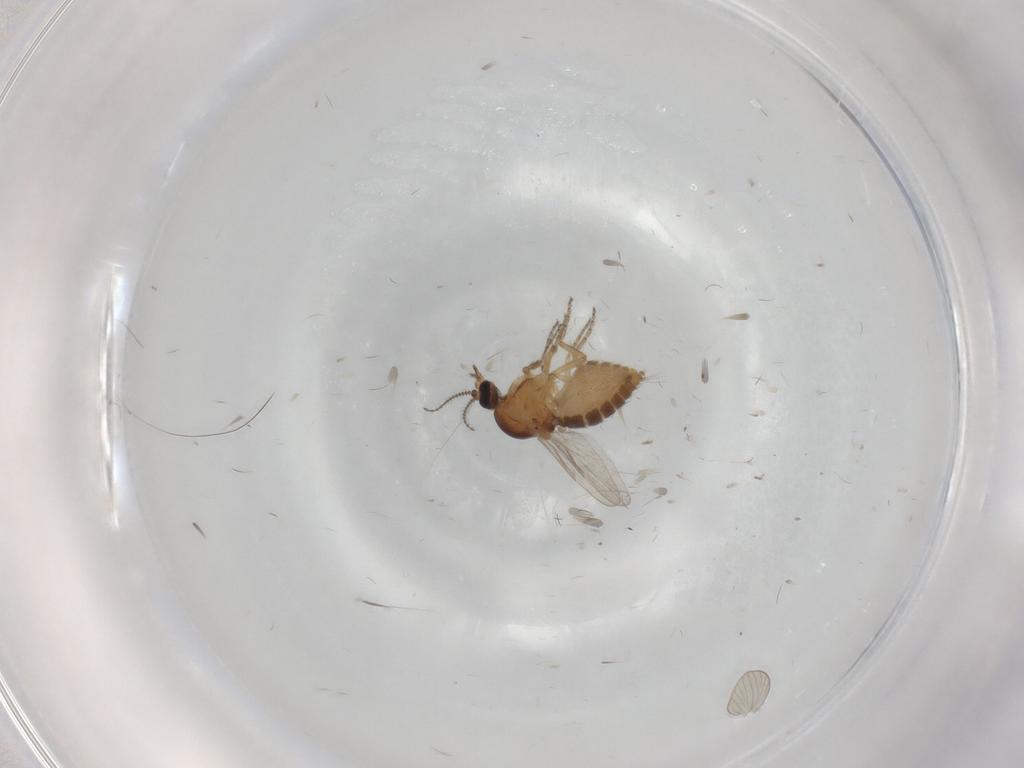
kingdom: Animalia
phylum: Arthropoda
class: Insecta
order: Diptera
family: Ceratopogonidae
